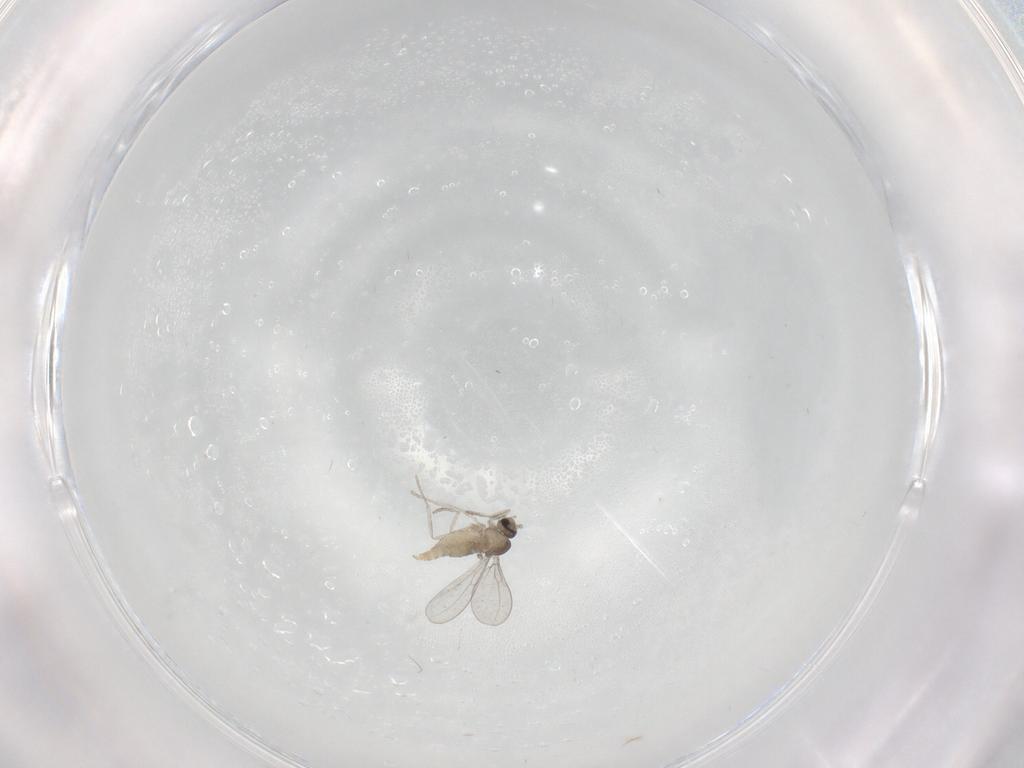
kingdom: Animalia
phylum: Arthropoda
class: Insecta
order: Diptera
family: Cecidomyiidae
